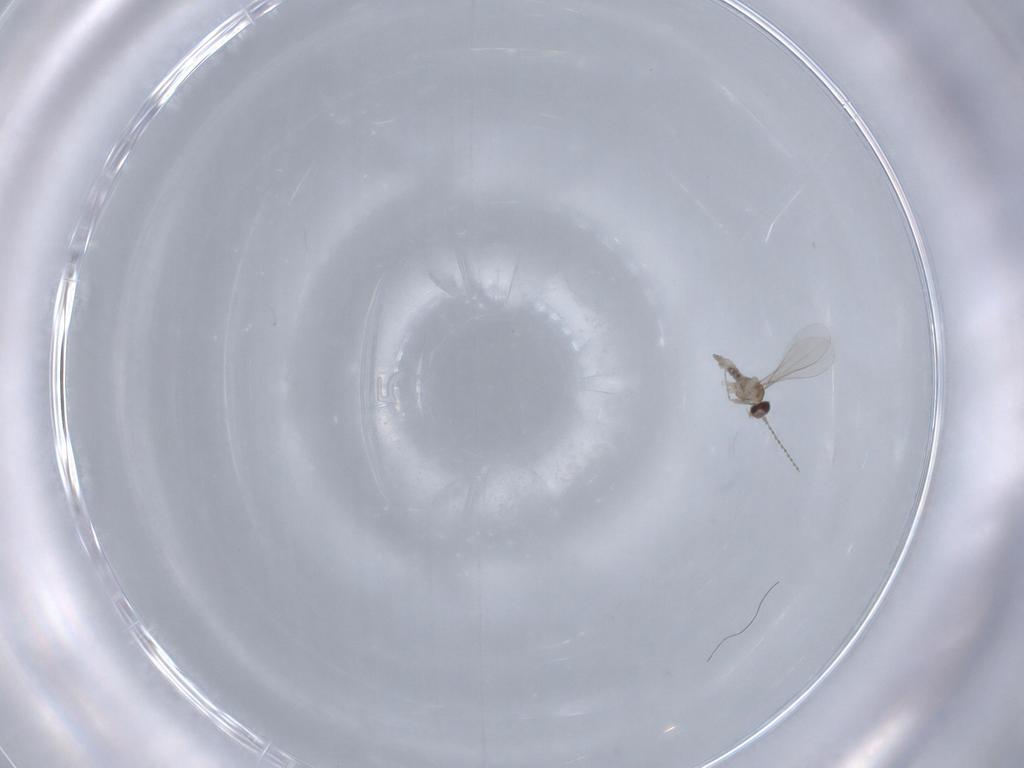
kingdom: Animalia
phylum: Arthropoda
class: Insecta
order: Diptera
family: Cecidomyiidae
